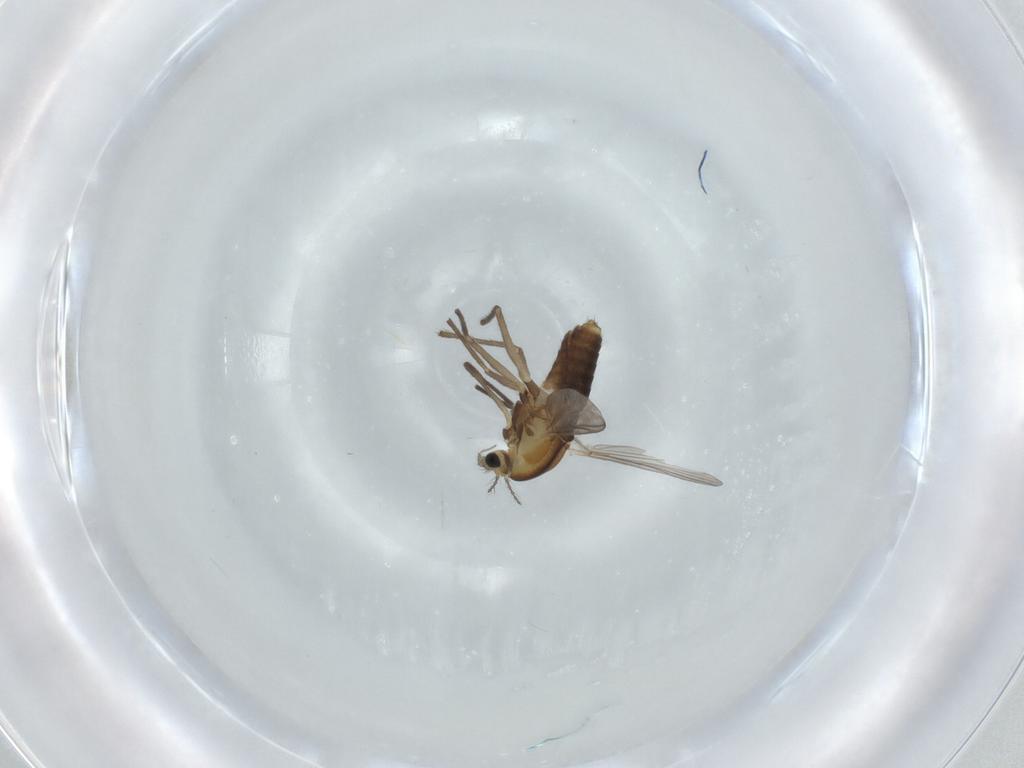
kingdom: Animalia
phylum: Arthropoda
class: Insecta
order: Diptera
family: Chironomidae
